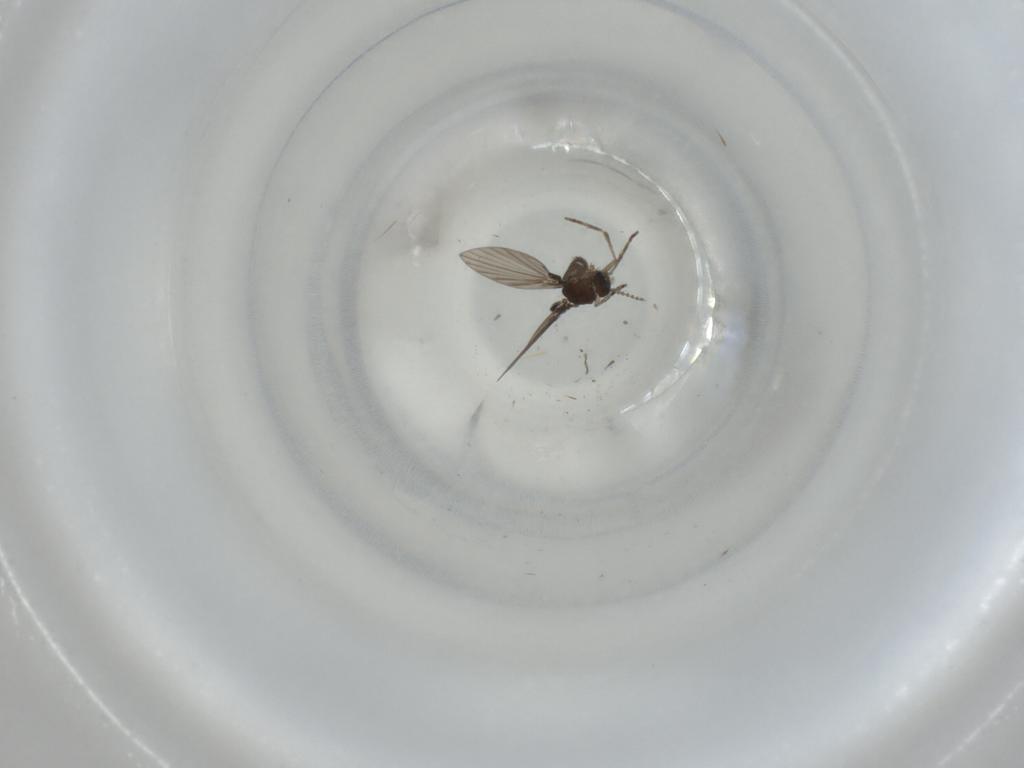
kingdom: Animalia
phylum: Arthropoda
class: Insecta
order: Diptera
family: Psychodidae
